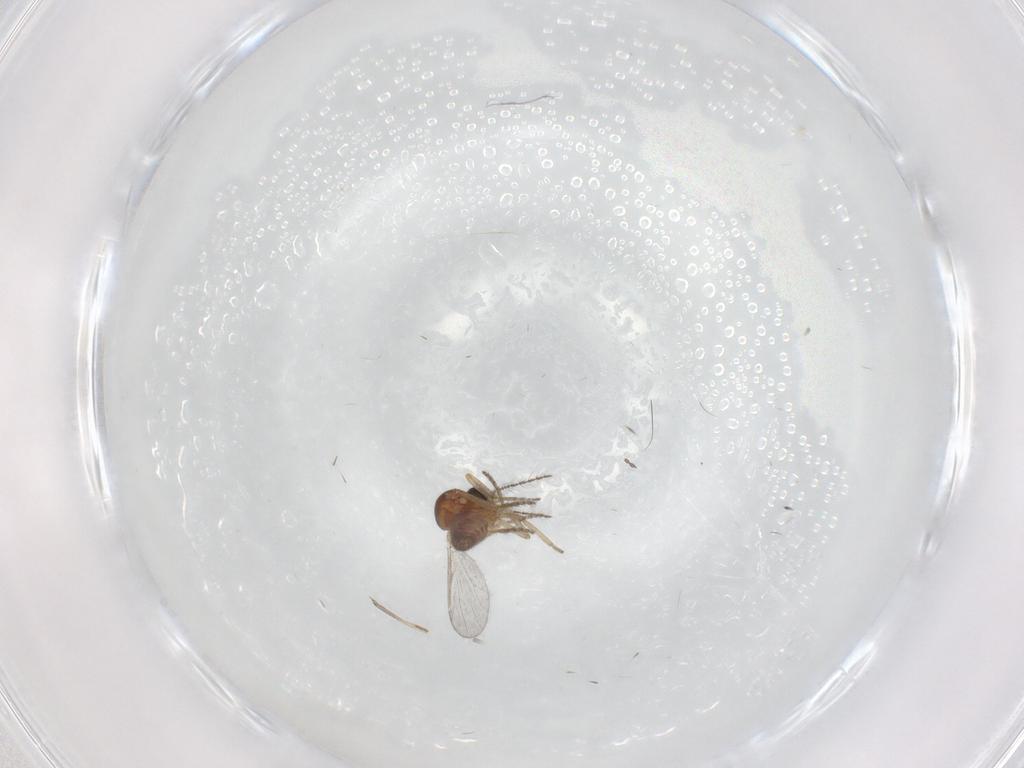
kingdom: Animalia
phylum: Arthropoda
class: Insecta
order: Diptera
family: Ceratopogonidae
